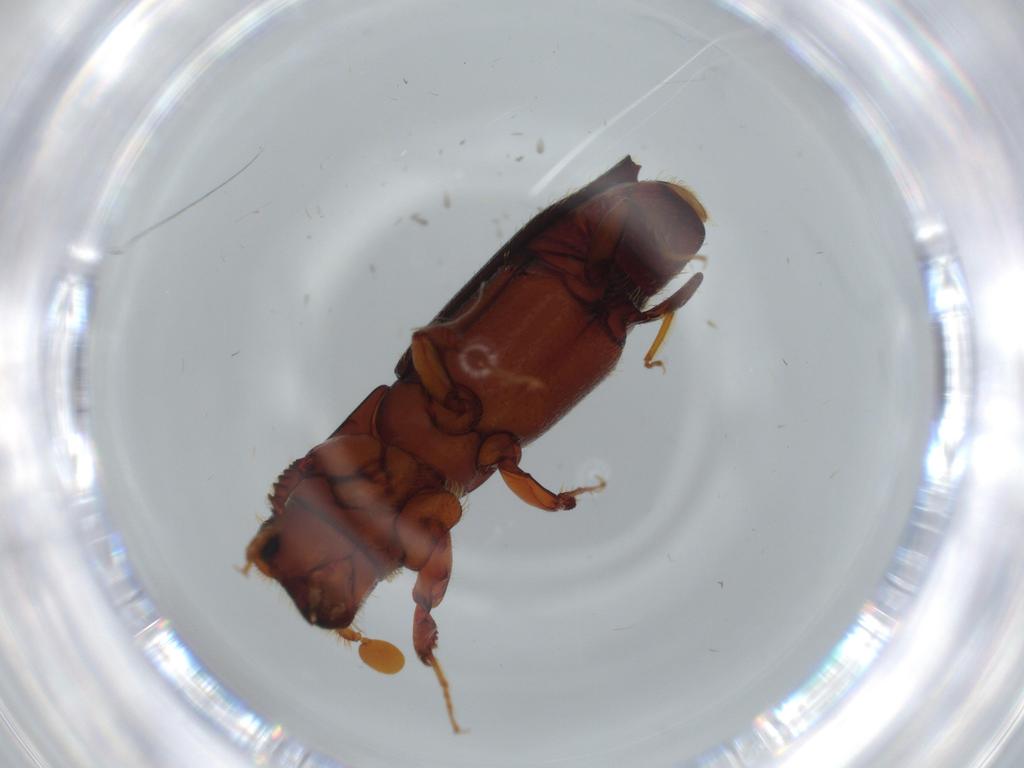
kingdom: Animalia
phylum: Arthropoda
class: Insecta
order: Coleoptera
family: Curculionidae
